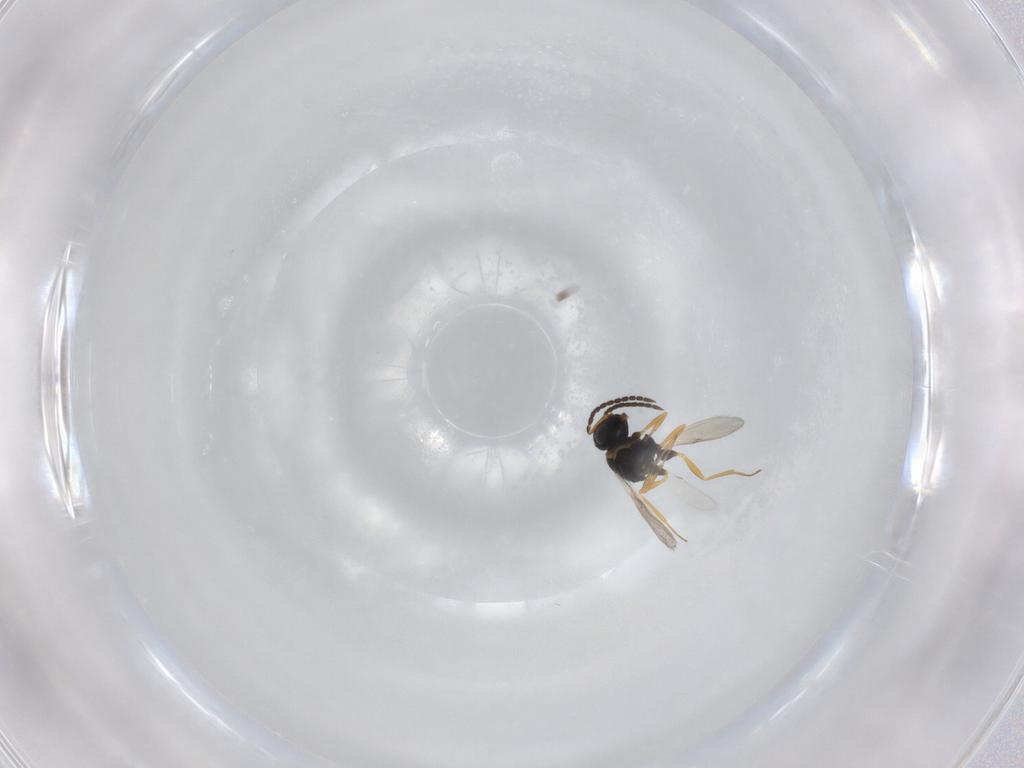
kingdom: Animalia
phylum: Arthropoda
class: Insecta
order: Hymenoptera
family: Scelionidae
